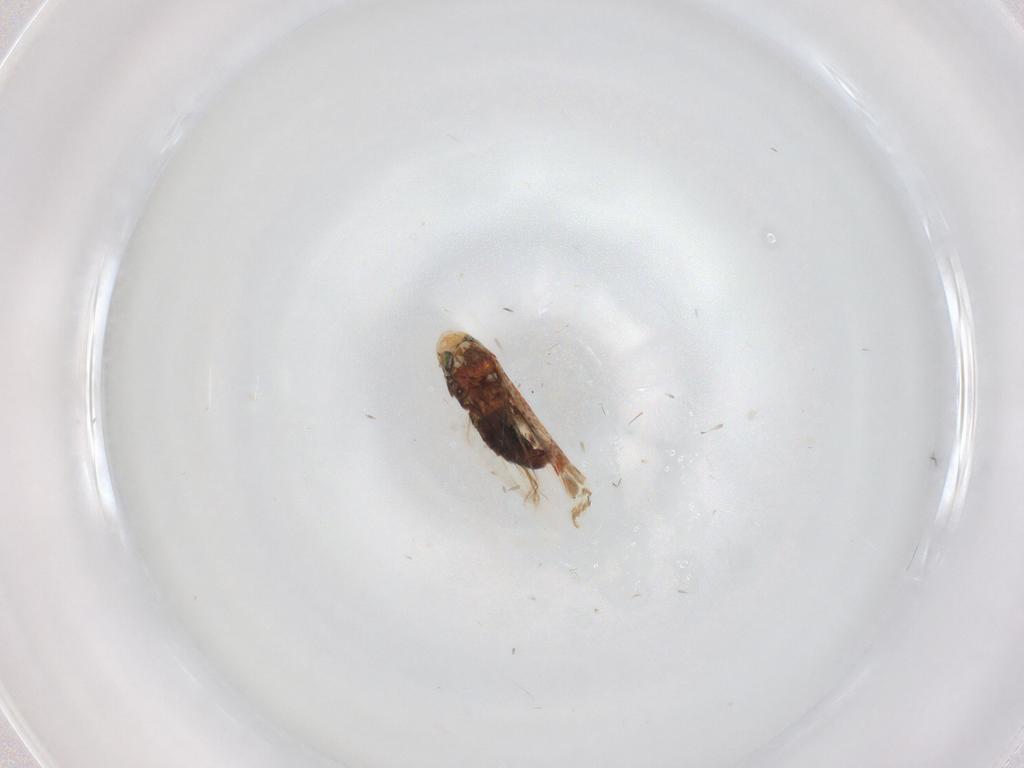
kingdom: Animalia
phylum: Arthropoda
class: Insecta
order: Hemiptera
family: Cicadellidae
